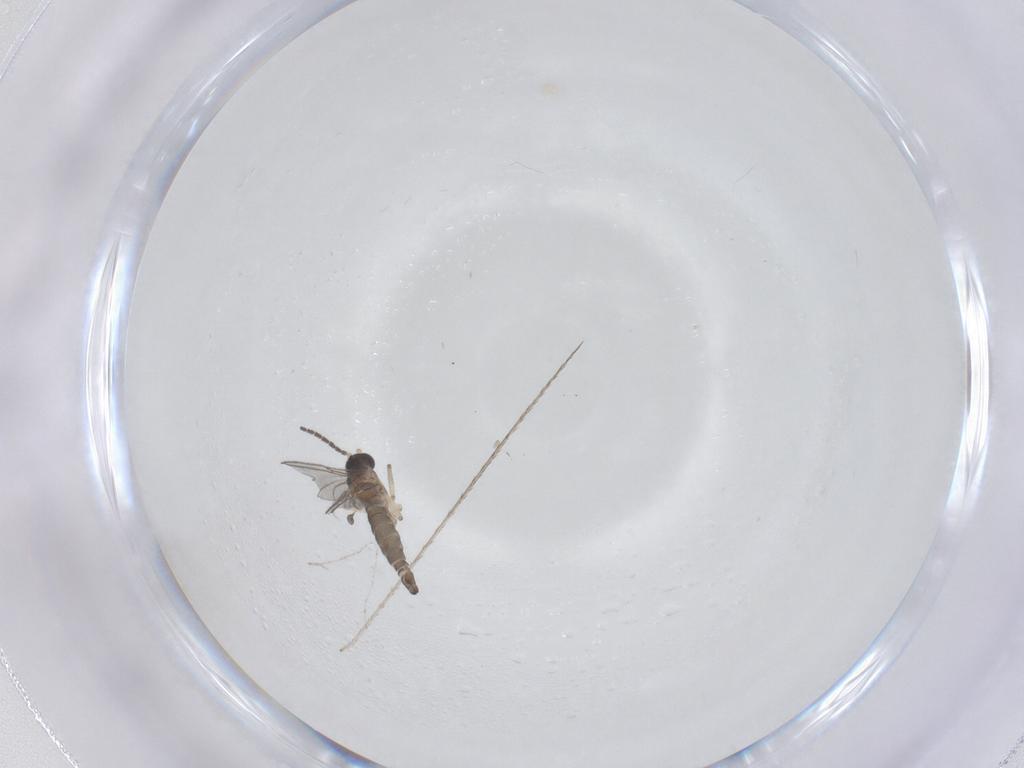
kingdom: Animalia
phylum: Arthropoda
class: Insecta
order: Diptera
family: Sciaridae
